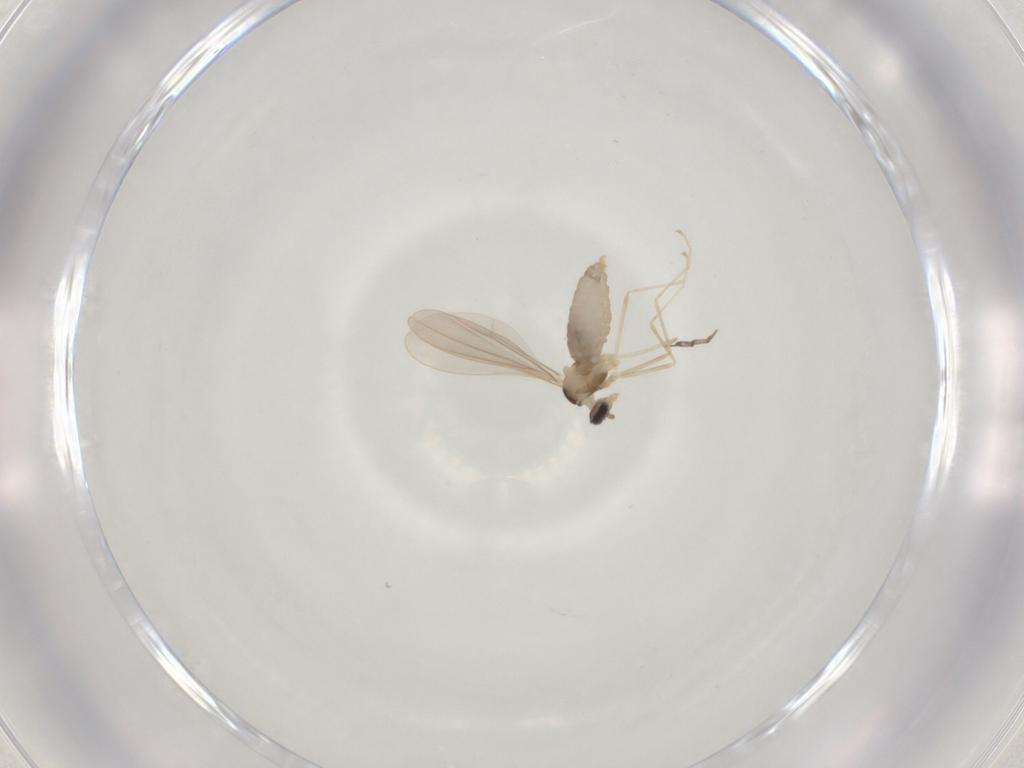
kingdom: Animalia
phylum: Arthropoda
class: Insecta
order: Diptera
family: Cecidomyiidae
